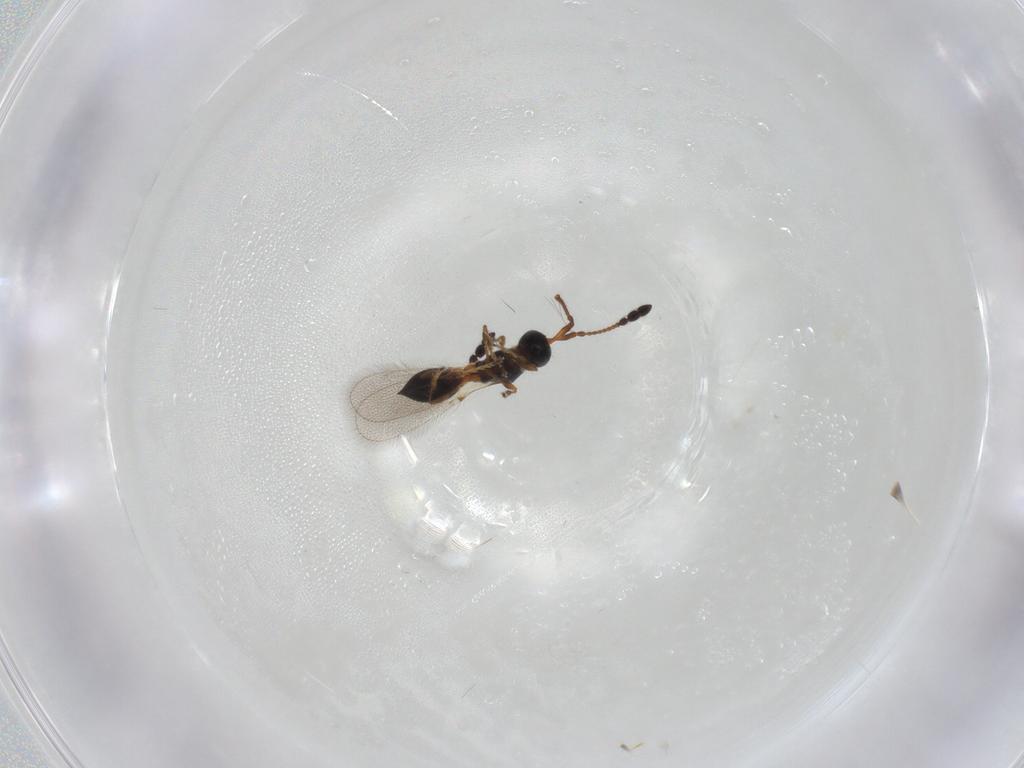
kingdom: Animalia
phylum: Arthropoda
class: Insecta
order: Hymenoptera
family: Diapriidae
